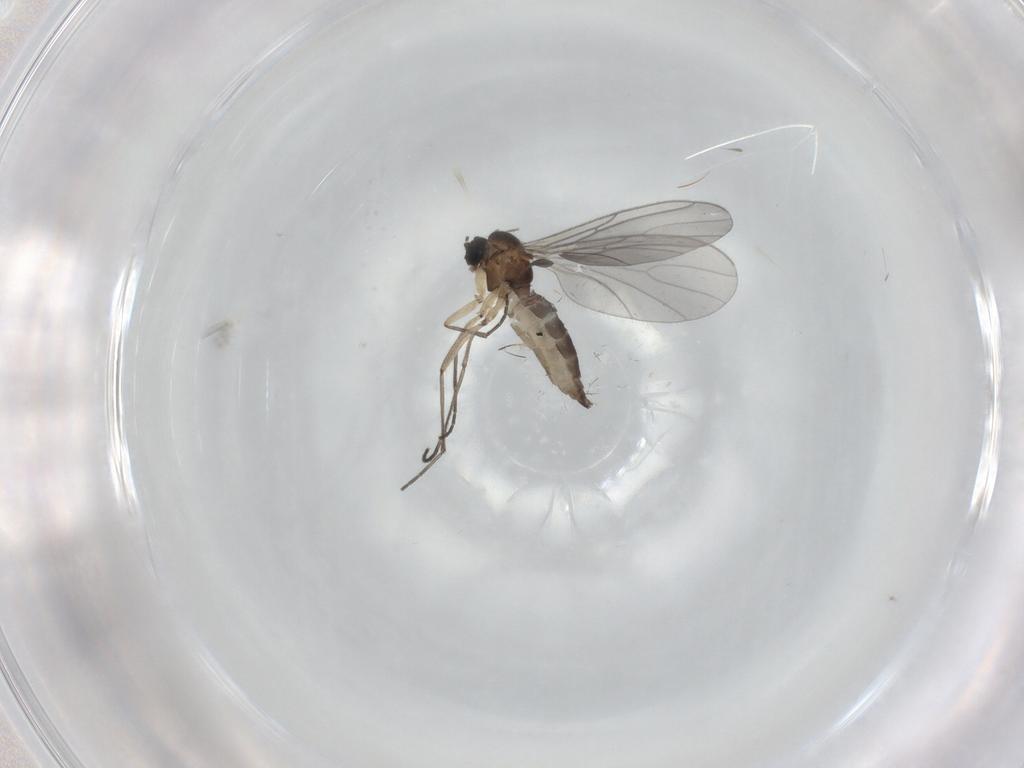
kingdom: Animalia
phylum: Arthropoda
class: Insecta
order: Diptera
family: Sciaridae
